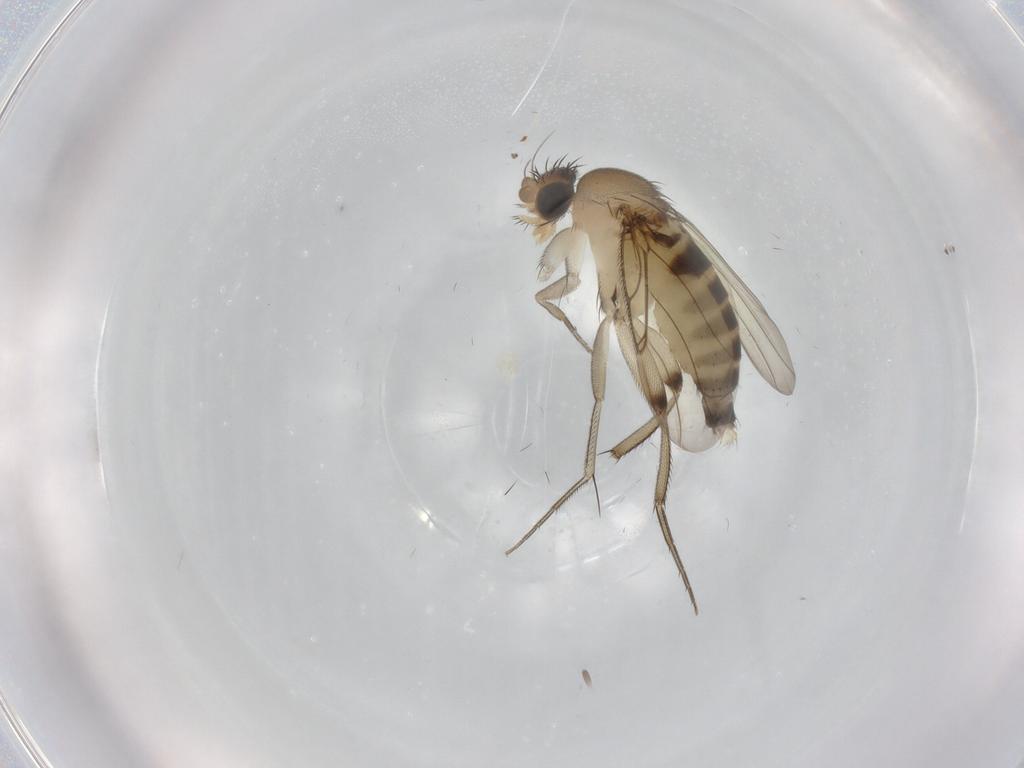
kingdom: Animalia
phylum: Arthropoda
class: Insecta
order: Diptera
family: Phoridae
